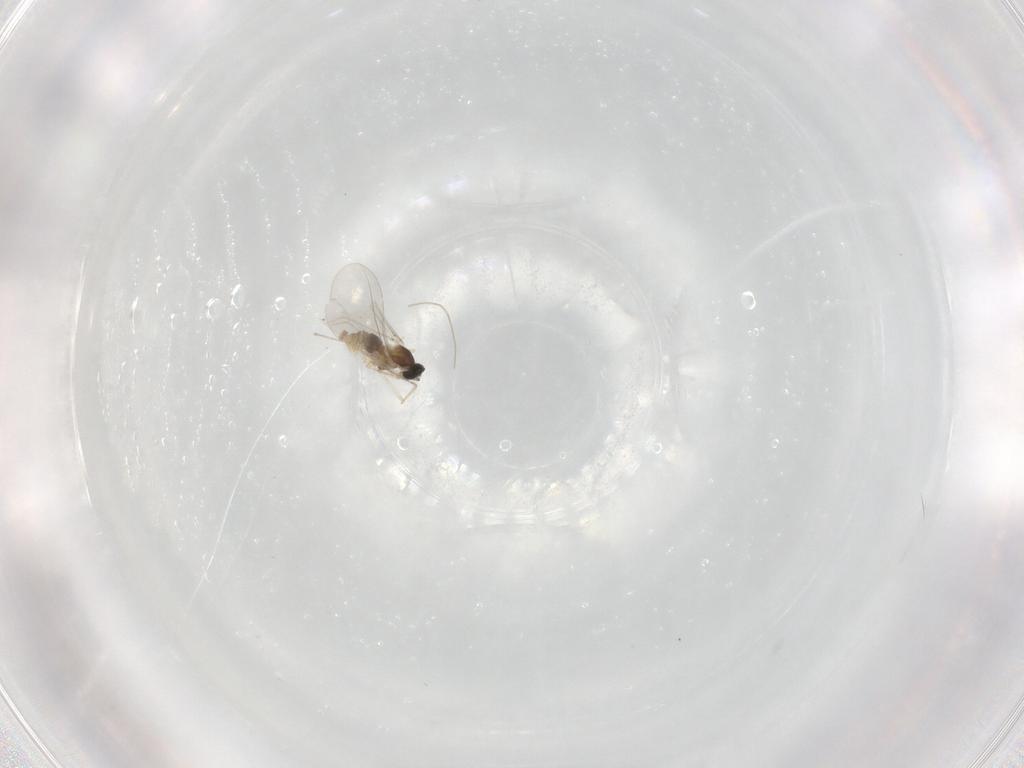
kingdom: Animalia
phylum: Arthropoda
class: Insecta
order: Diptera
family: Cecidomyiidae
